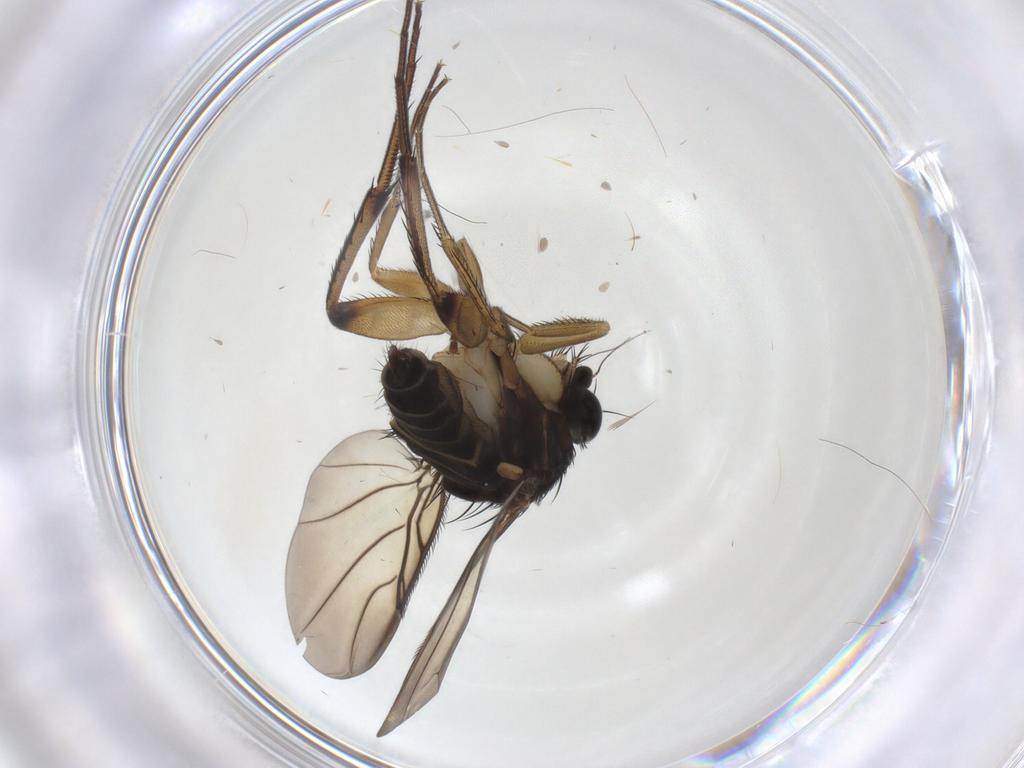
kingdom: Animalia
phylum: Arthropoda
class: Insecta
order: Diptera
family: Phoridae
